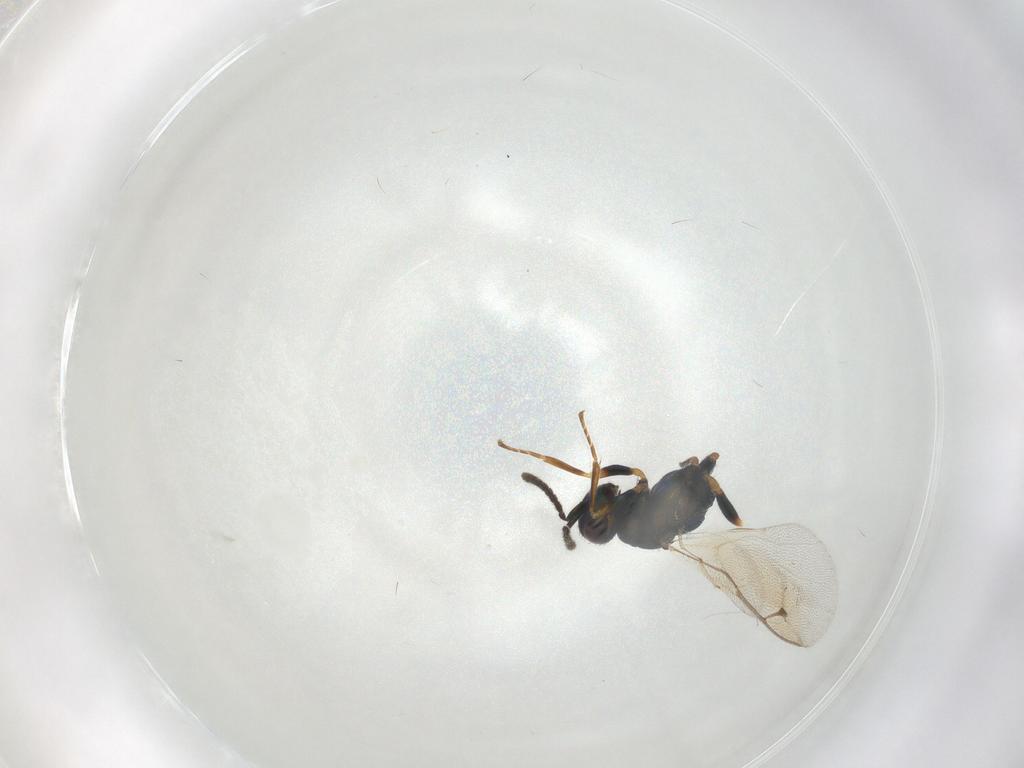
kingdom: Animalia
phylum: Arthropoda
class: Insecta
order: Hymenoptera
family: Pteromalidae
